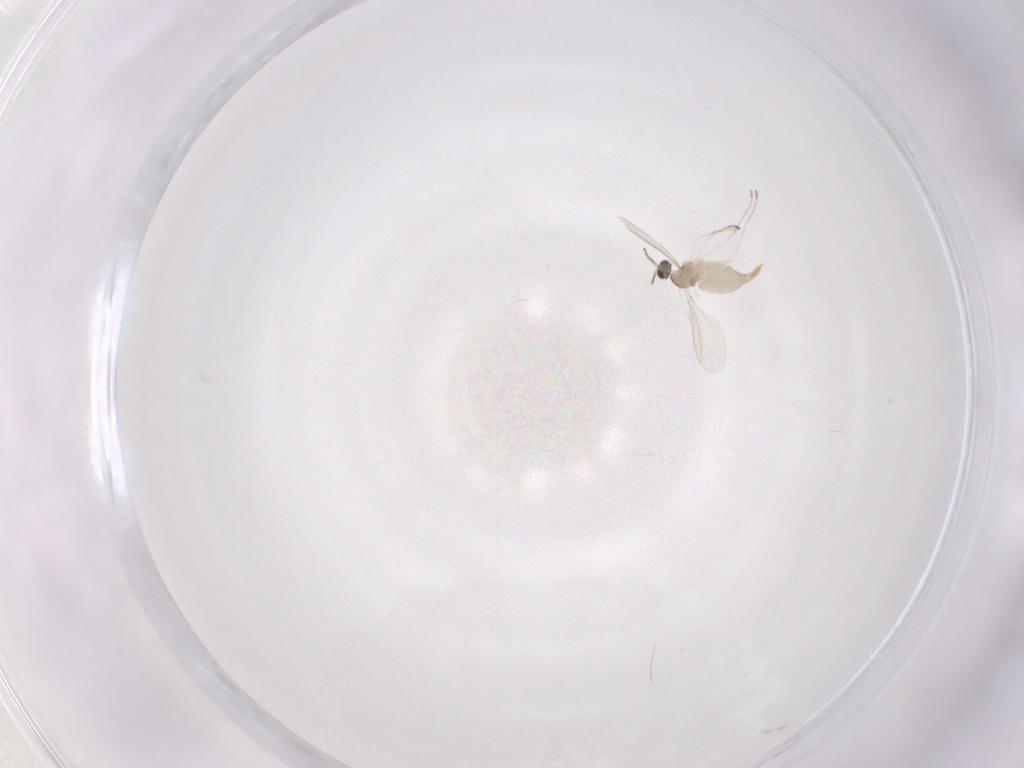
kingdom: Animalia
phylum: Arthropoda
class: Insecta
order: Diptera
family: Cecidomyiidae
